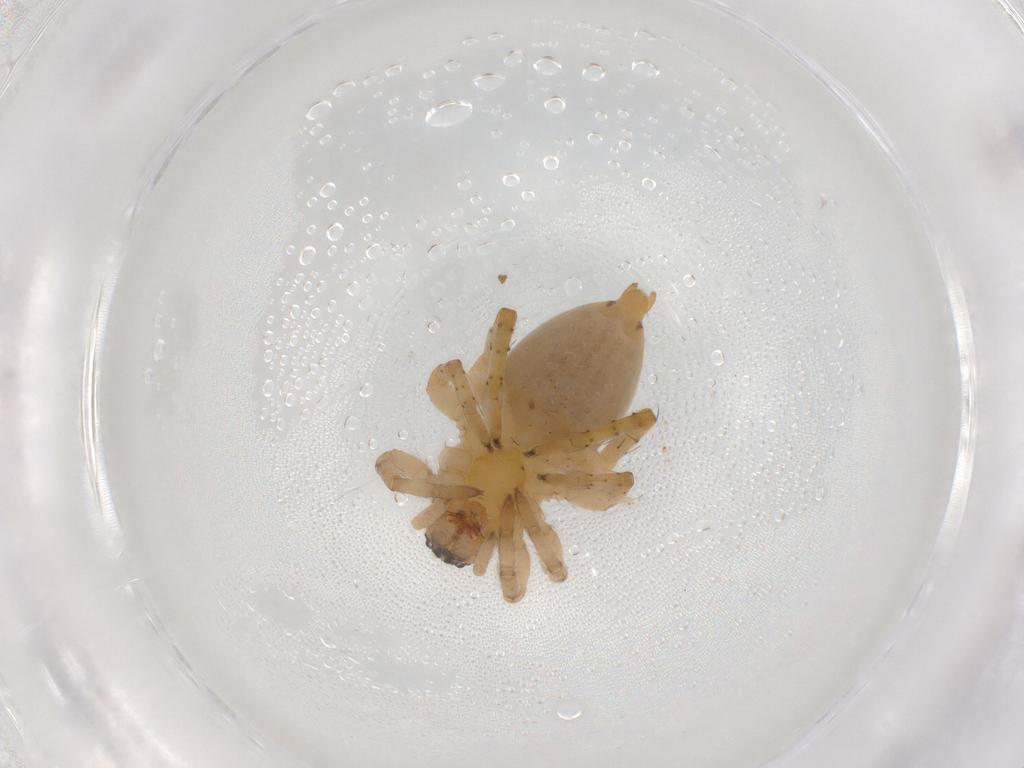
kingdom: Animalia
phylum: Arthropoda
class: Arachnida
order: Araneae
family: Clubionidae
